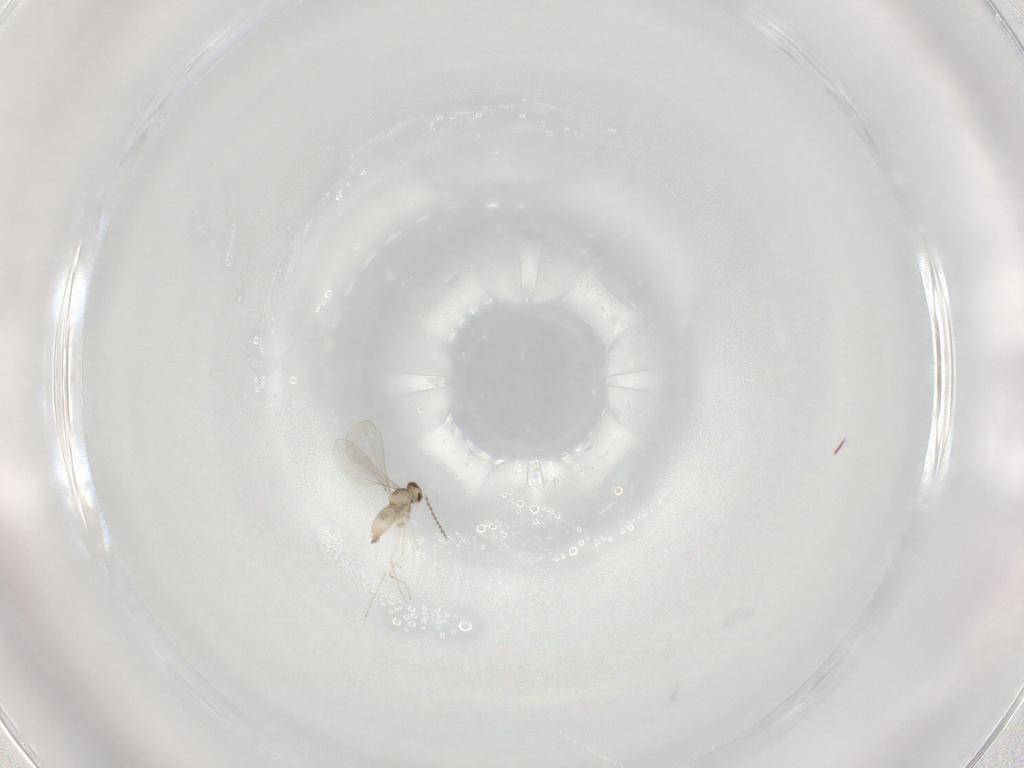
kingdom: Animalia
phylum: Arthropoda
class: Insecta
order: Diptera
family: Cecidomyiidae
